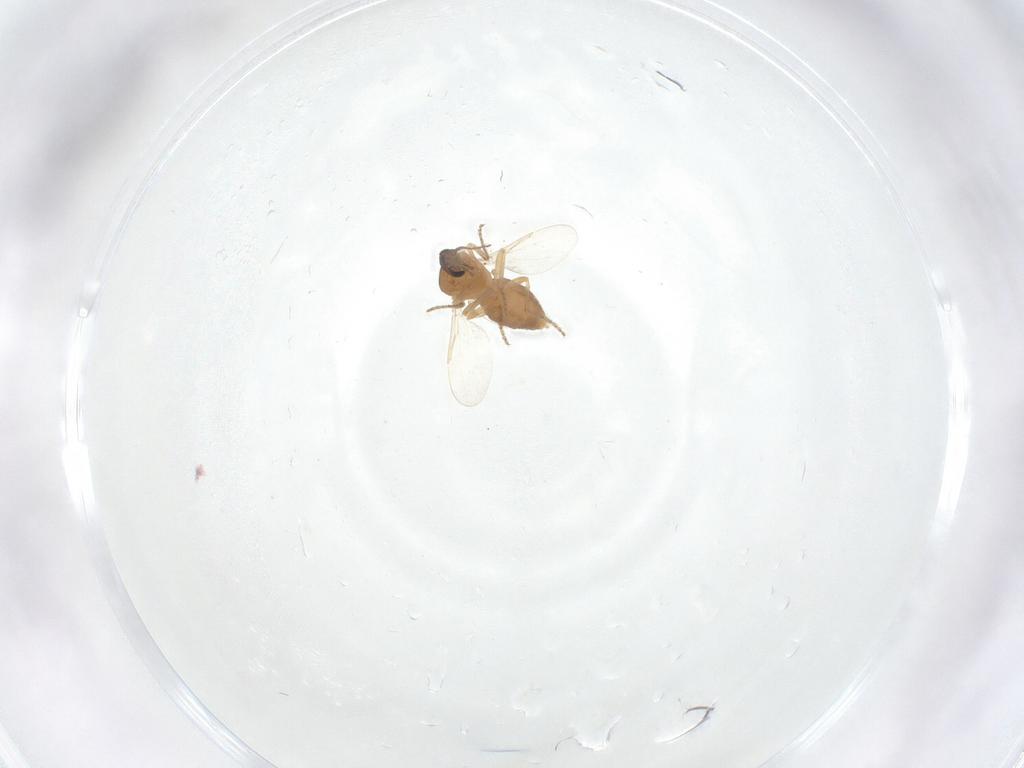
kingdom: Animalia
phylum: Arthropoda
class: Insecta
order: Diptera
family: Ceratopogonidae
